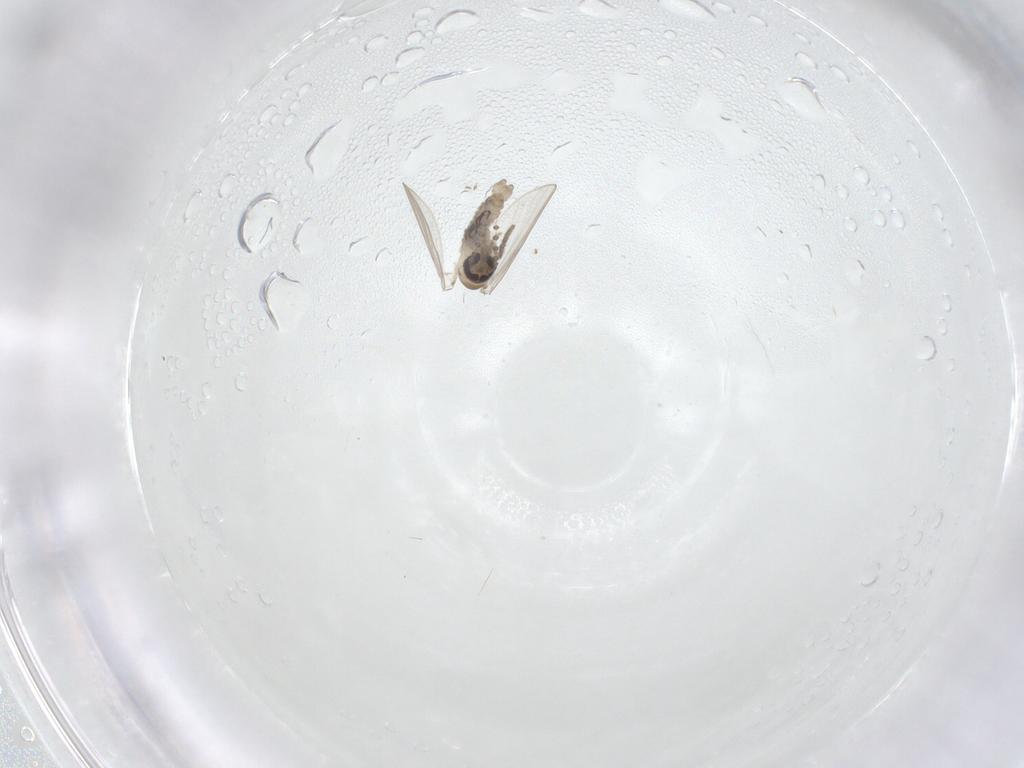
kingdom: Animalia
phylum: Arthropoda
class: Insecta
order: Diptera
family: Psychodidae
